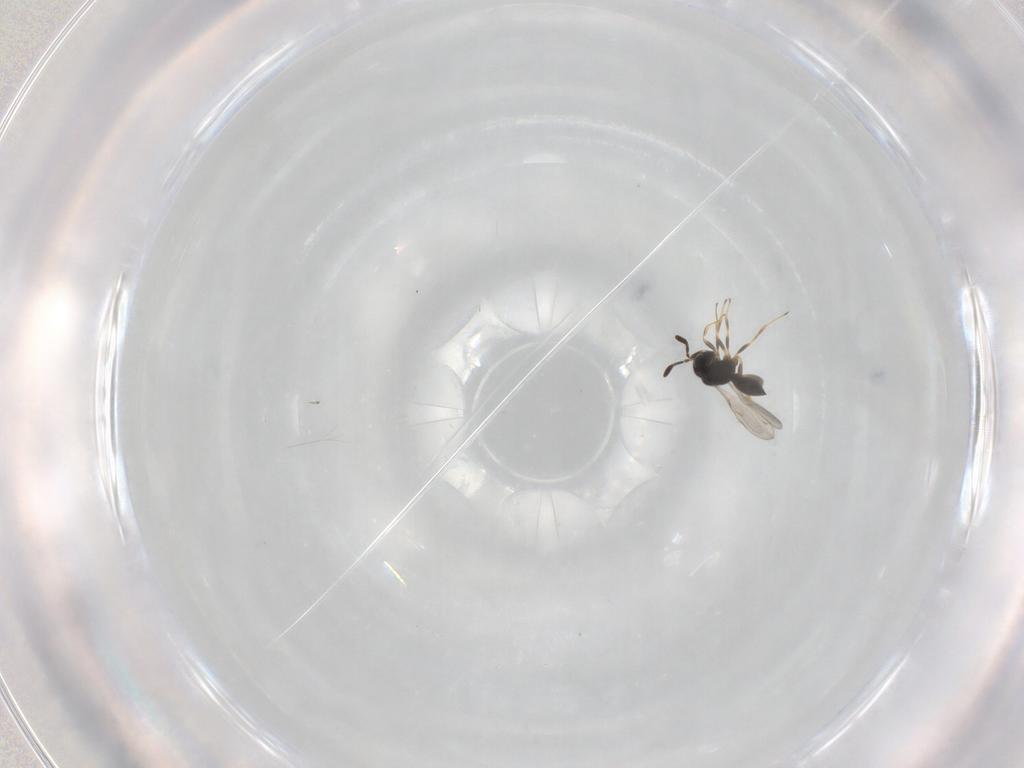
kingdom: Animalia
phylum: Arthropoda
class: Insecta
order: Hymenoptera
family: Scelionidae
